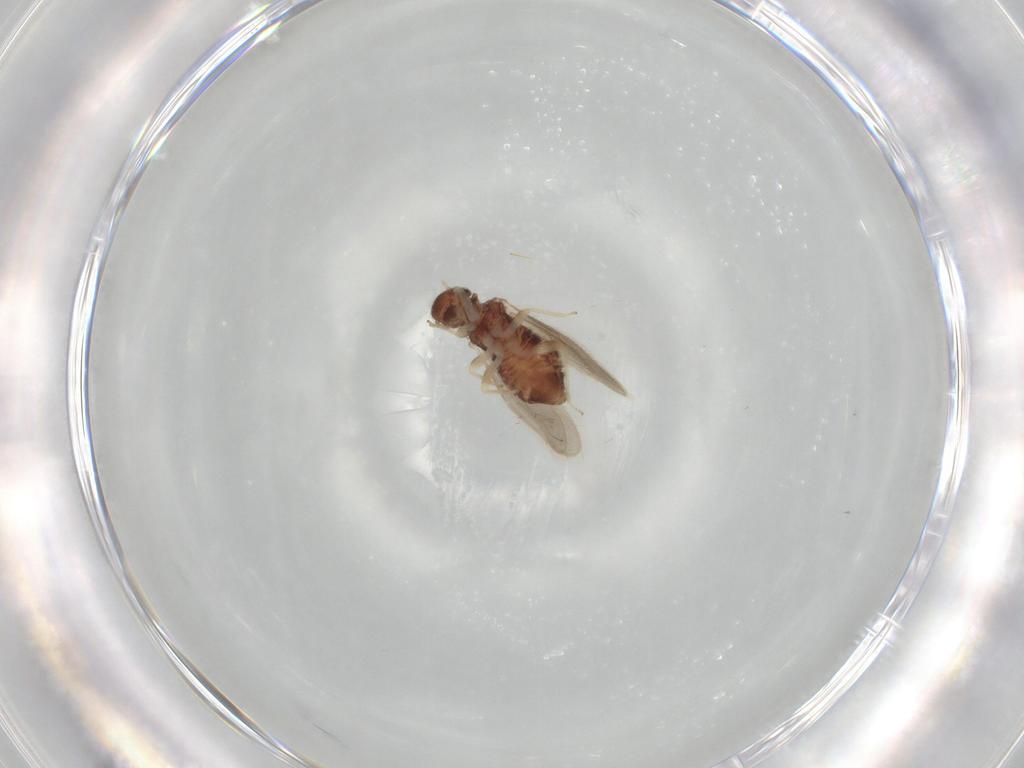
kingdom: Animalia
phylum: Arthropoda
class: Insecta
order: Psocodea
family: Archipsocidae
